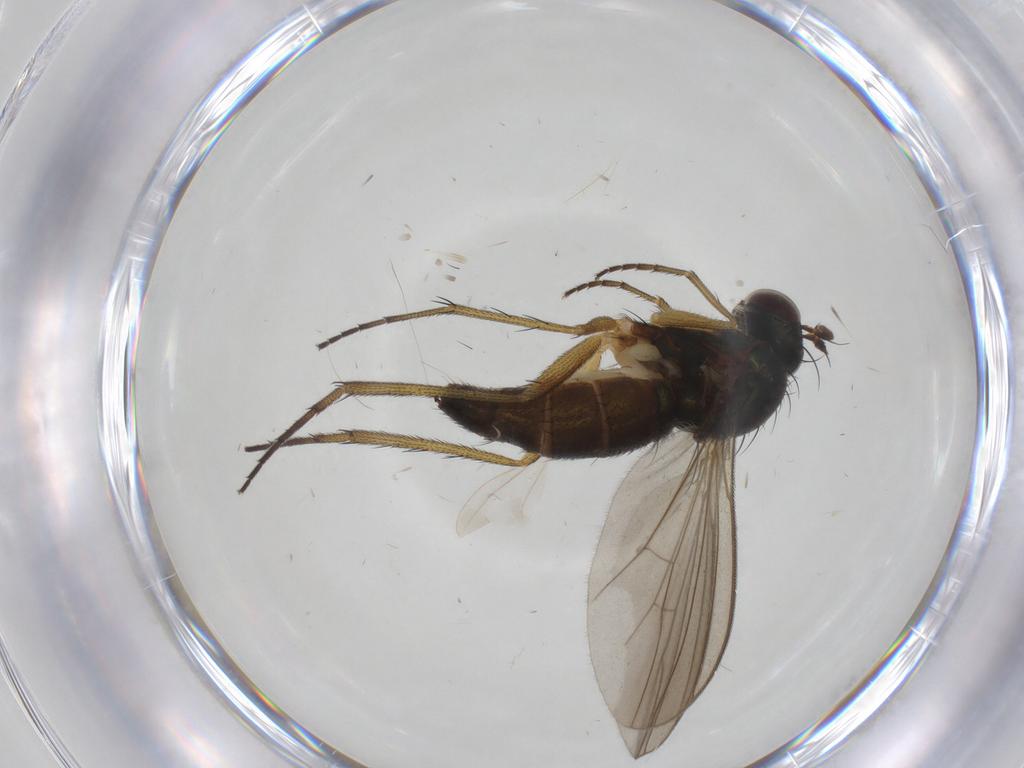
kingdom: Animalia
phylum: Arthropoda
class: Insecta
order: Diptera
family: Dolichopodidae
